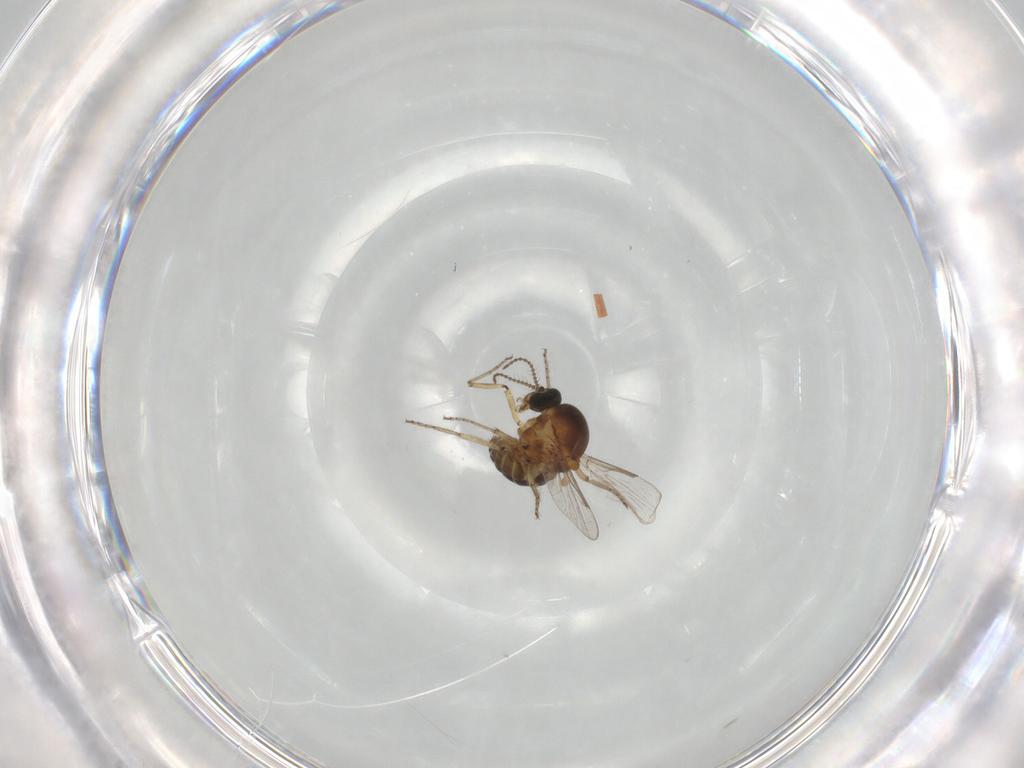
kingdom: Animalia
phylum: Arthropoda
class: Insecta
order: Diptera
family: Ceratopogonidae
